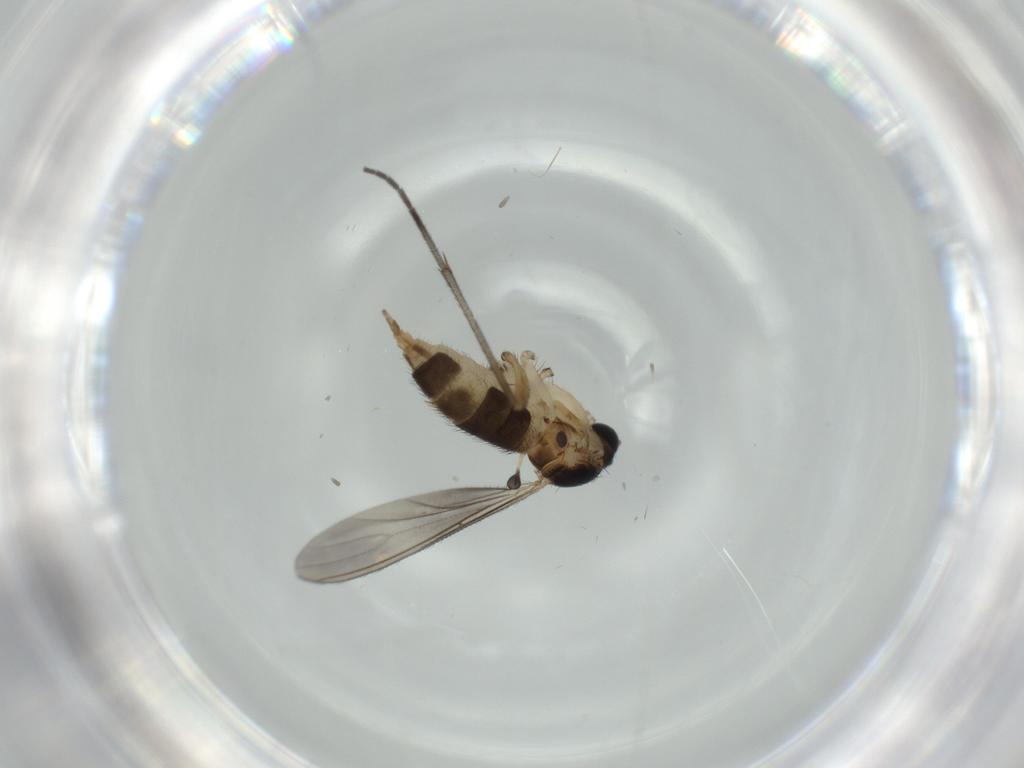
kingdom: Animalia
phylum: Arthropoda
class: Insecta
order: Diptera
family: Sciaridae
